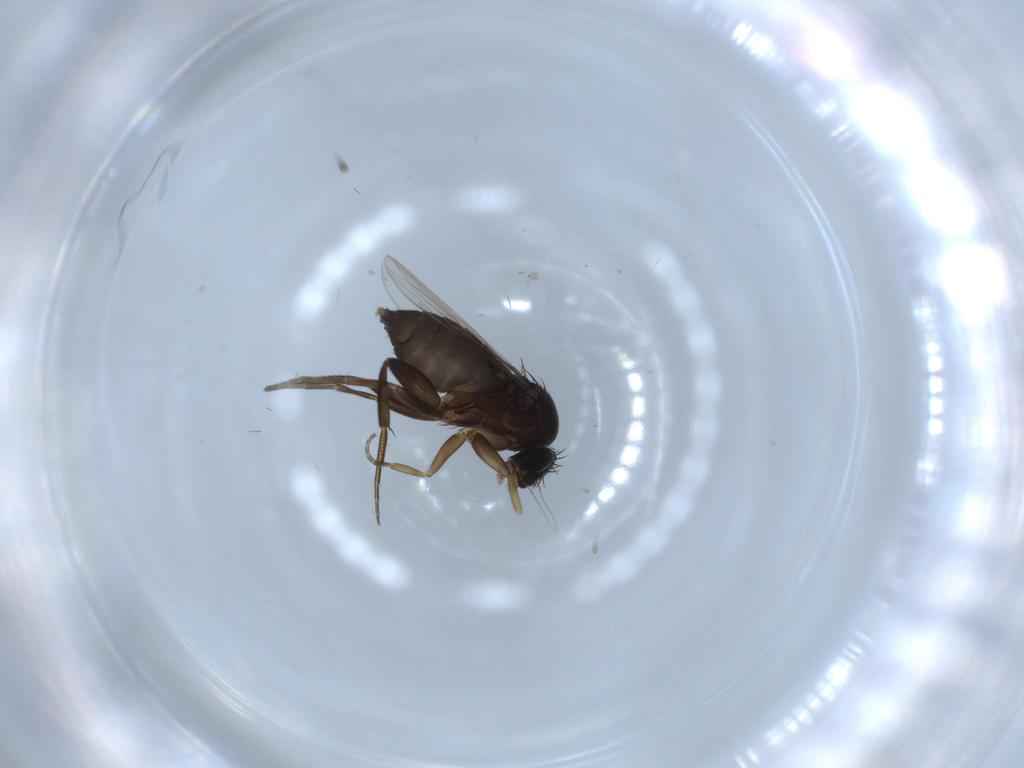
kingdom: Animalia
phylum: Arthropoda
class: Insecta
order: Diptera
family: Phoridae
